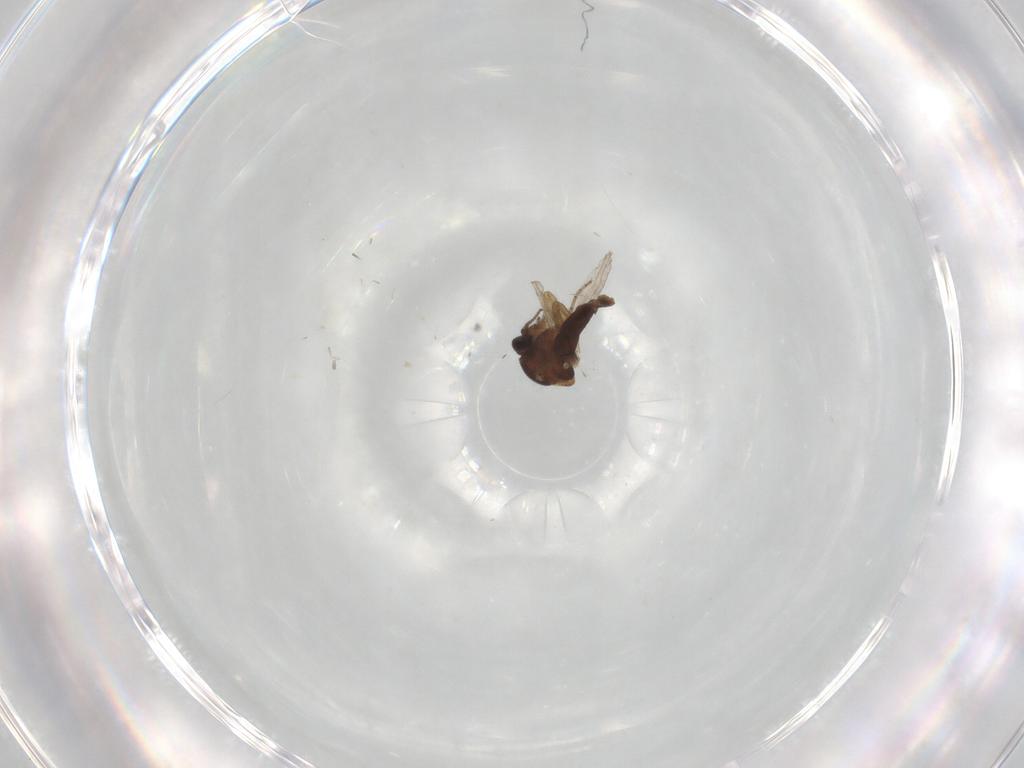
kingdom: Animalia
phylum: Arthropoda
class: Insecta
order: Diptera
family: Ceratopogonidae
